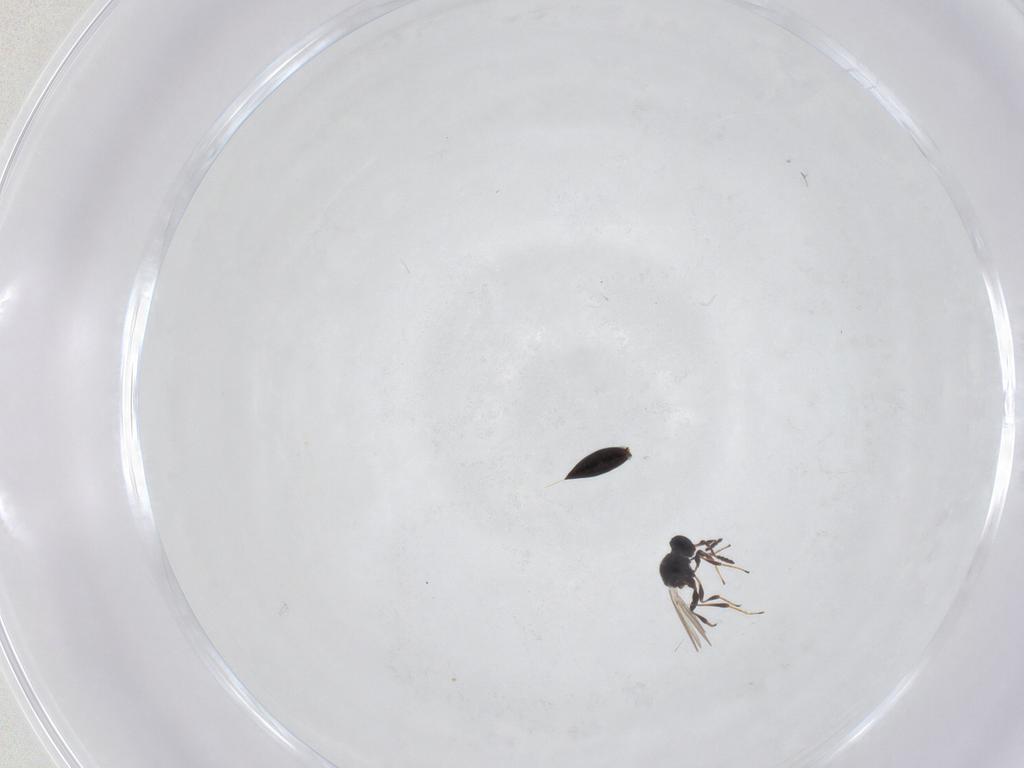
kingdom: Animalia
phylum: Arthropoda
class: Insecta
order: Hymenoptera
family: Platygastridae
